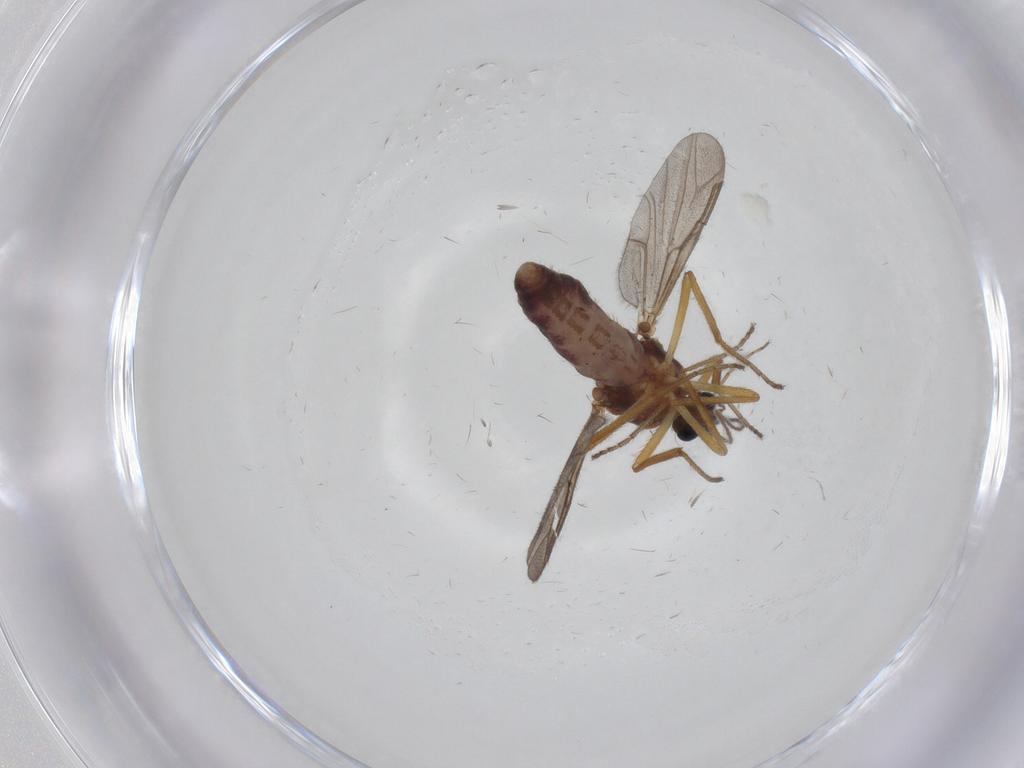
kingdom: Animalia
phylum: Arthropoda
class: Insecta
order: Diptera
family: Ceratopogonidae
